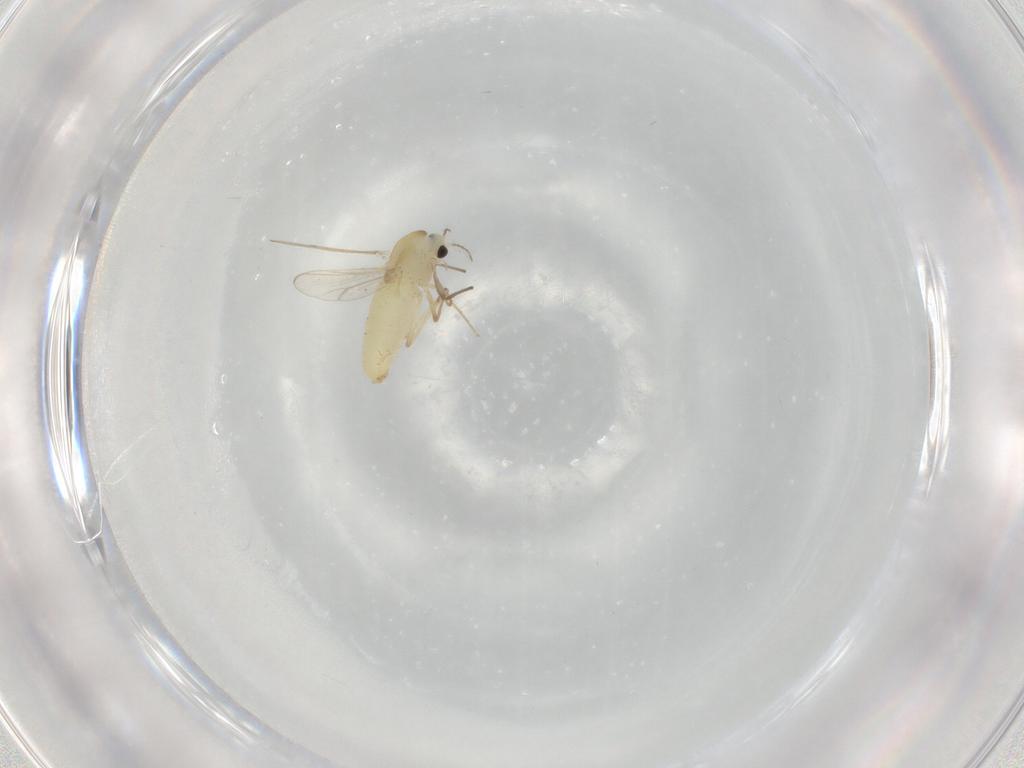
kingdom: Animalia
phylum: Arthropoda
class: Insecta
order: Diptera
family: Chironomidae
